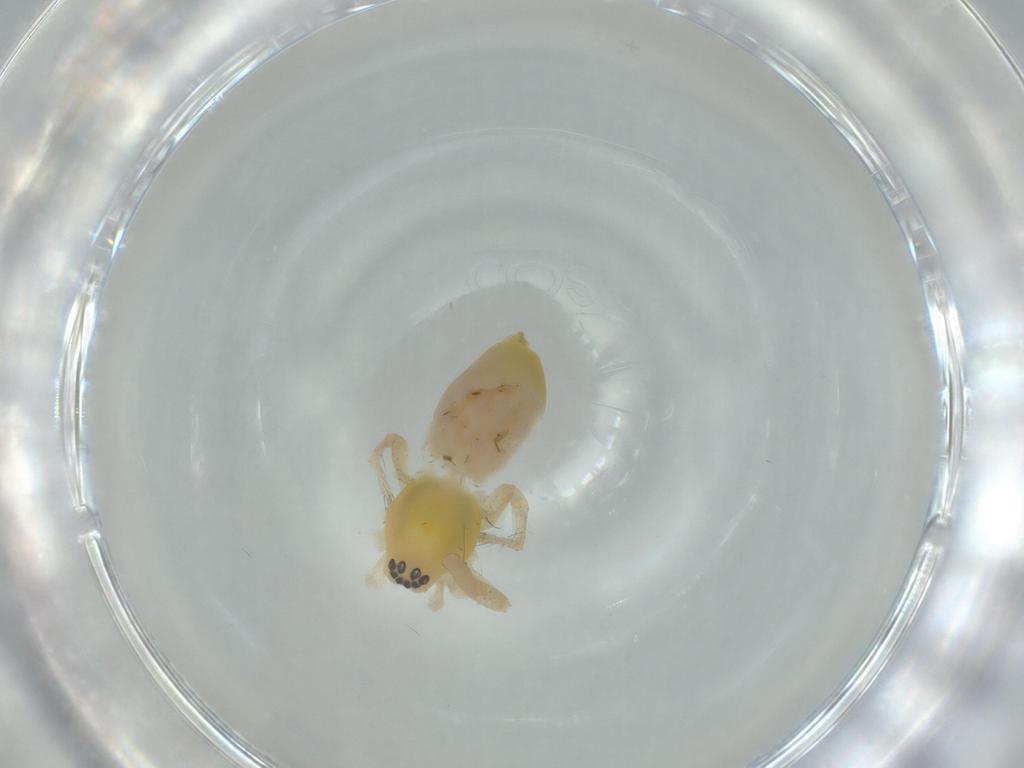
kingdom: Animalia
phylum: Arthropoda
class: Arachnida
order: Araneae
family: Anyphaenidae
